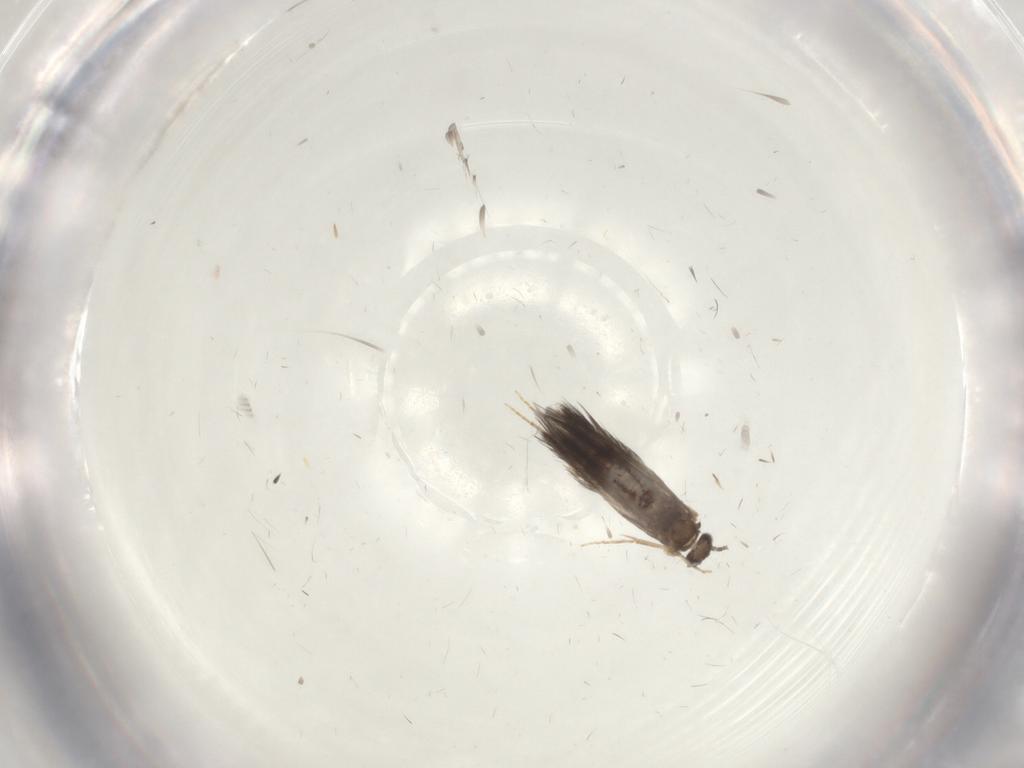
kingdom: Animalia
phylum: Arthropoda
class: Insecta
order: Trichoptera
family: Xiphocentronidae
